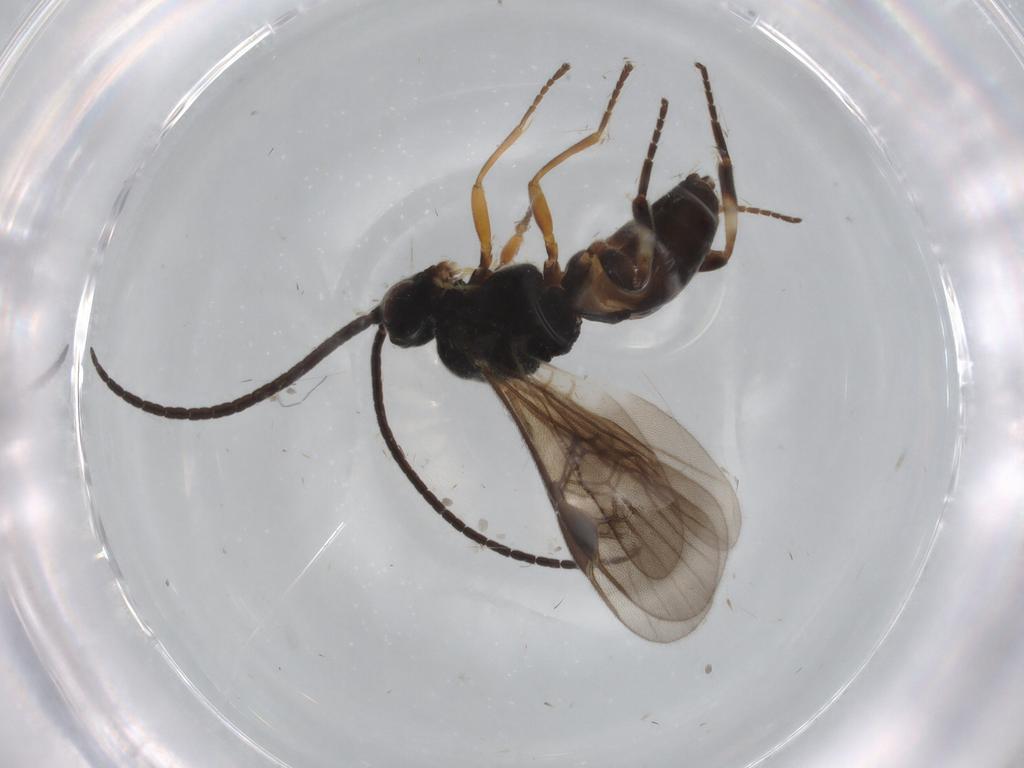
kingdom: Animalia
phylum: Arthropoda
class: Insecta
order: Hymenoptera
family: Braconidae
